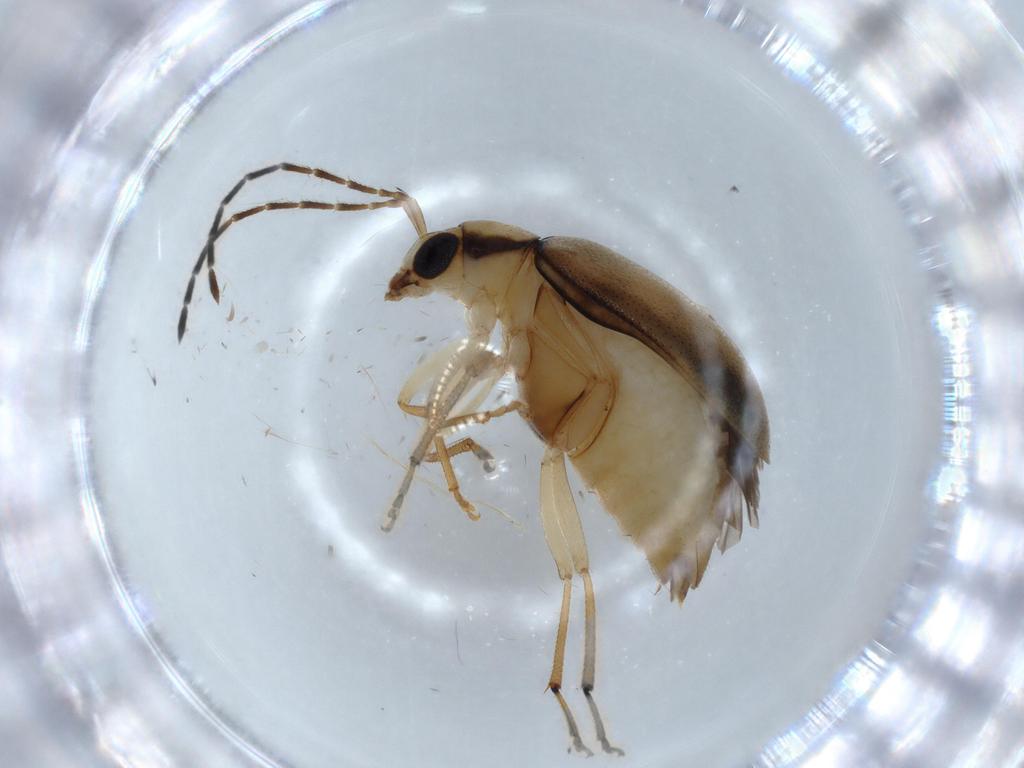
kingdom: Animalia
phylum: Arthropoda
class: Insecta
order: Coleoptera
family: Chrysomelidae
